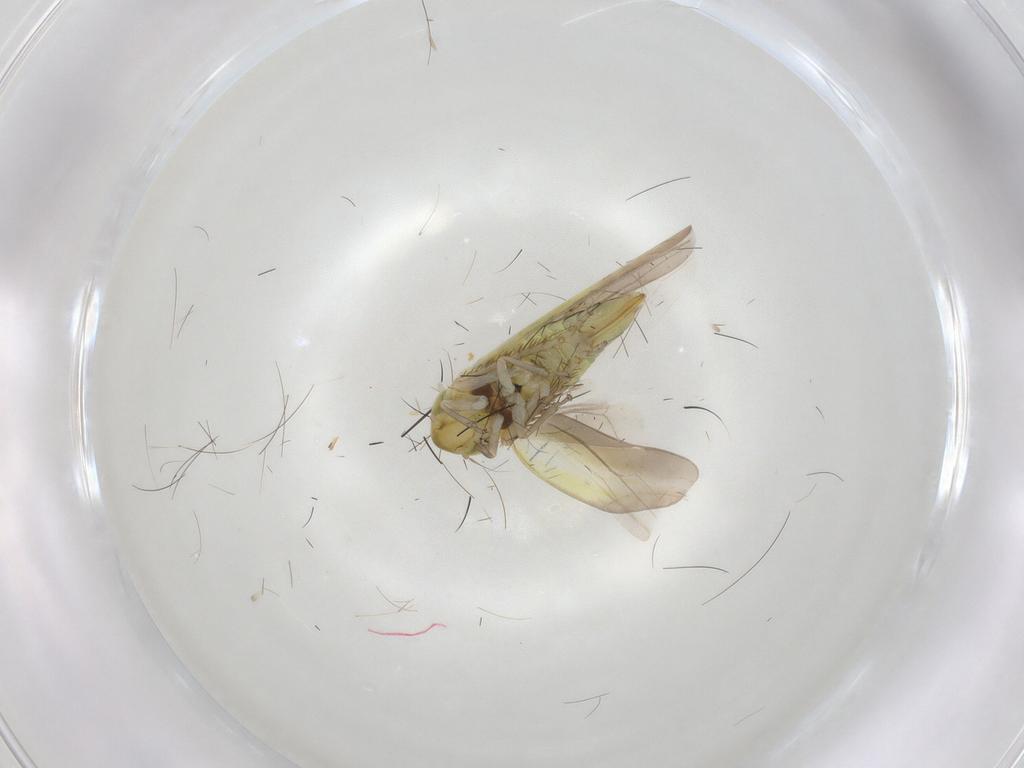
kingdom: Animalia
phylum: Arthropoda
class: Insecta
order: Hemiptera
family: Cicadellidae
